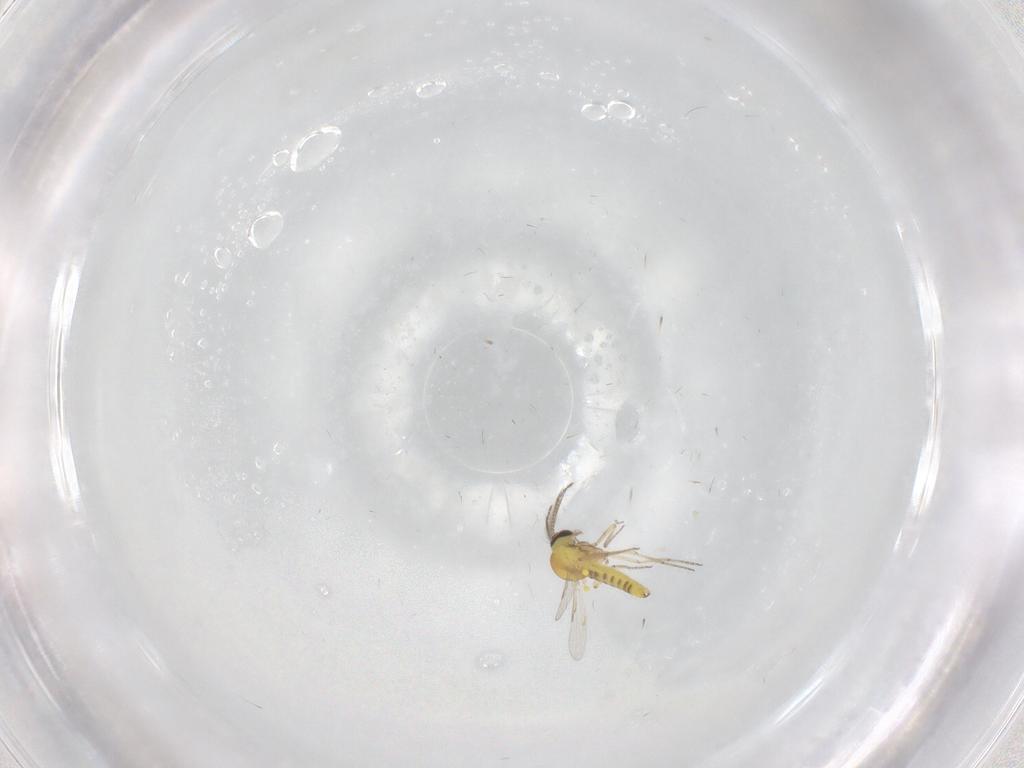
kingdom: Animalia
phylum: Arthropoda
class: Insecta
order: Diptera
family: Ceratopogonidae
